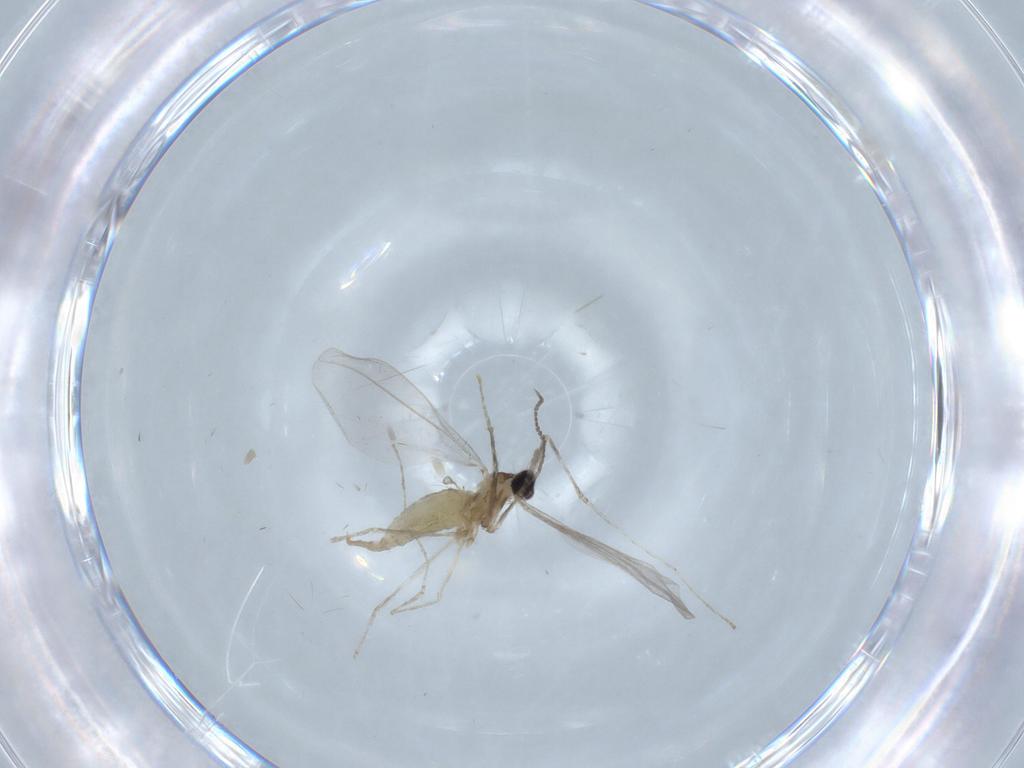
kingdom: Animalia
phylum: Arthropoda
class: Insecta
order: Diptera
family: Cecidomyiidae
